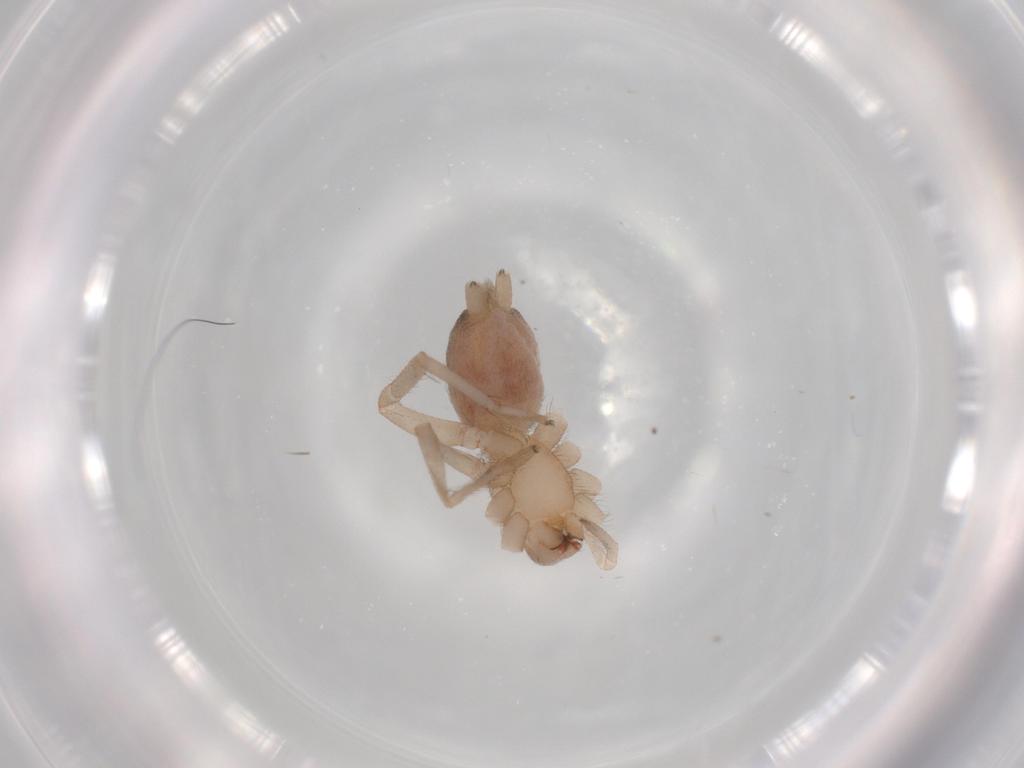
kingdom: Animalia
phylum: Arthropoda
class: Arachnida
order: Araneae
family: Gnaphosidae
